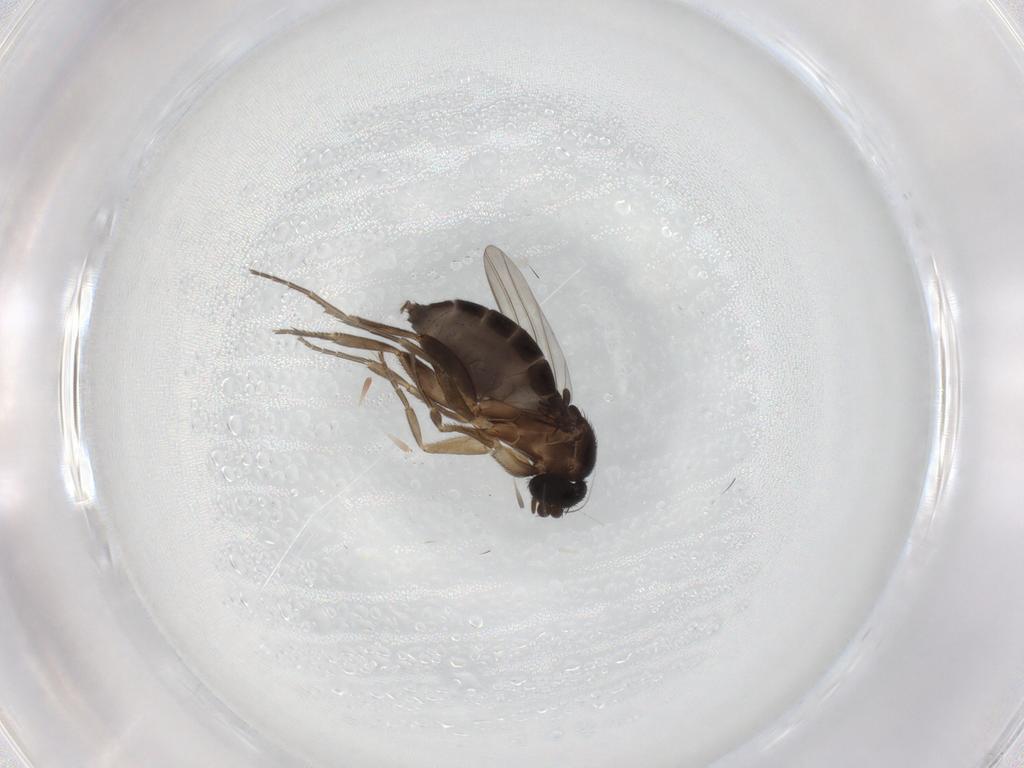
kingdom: Animalia
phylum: Arthropoda
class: Insecta
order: Diptera
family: Phoridae
